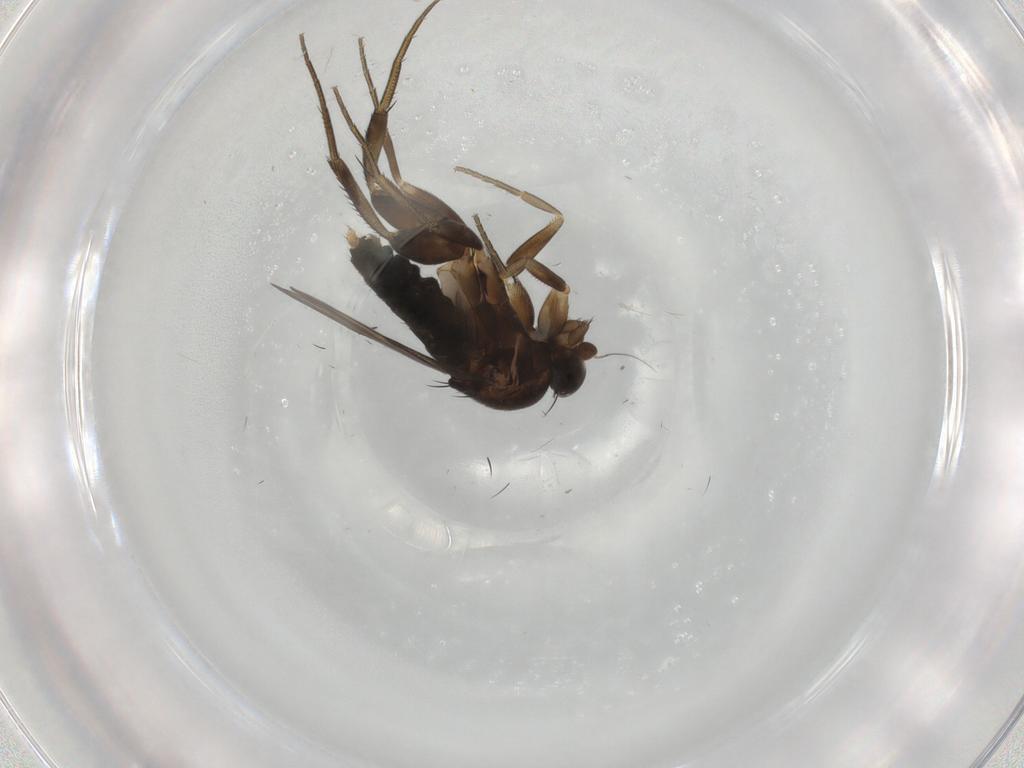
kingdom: Animalia
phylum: Arthropoda
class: Insecta
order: Diptera
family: Phoridae
